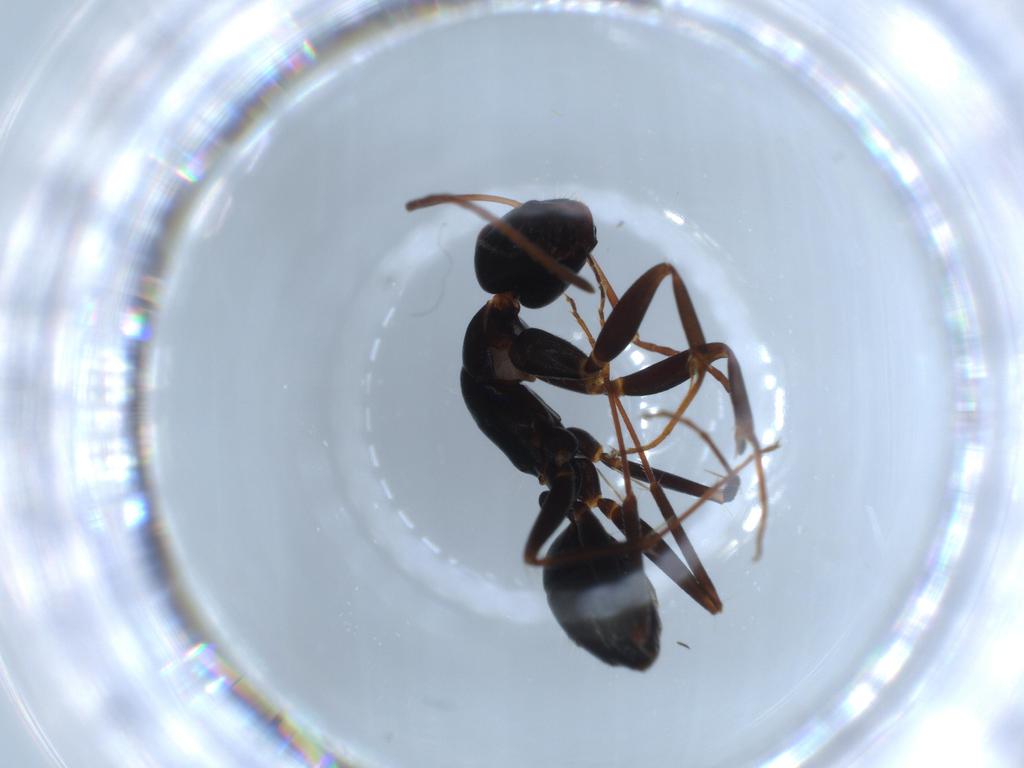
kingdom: Animalia
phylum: Arthropoda
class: Insecta
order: Hymenoptera
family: Formicidae
